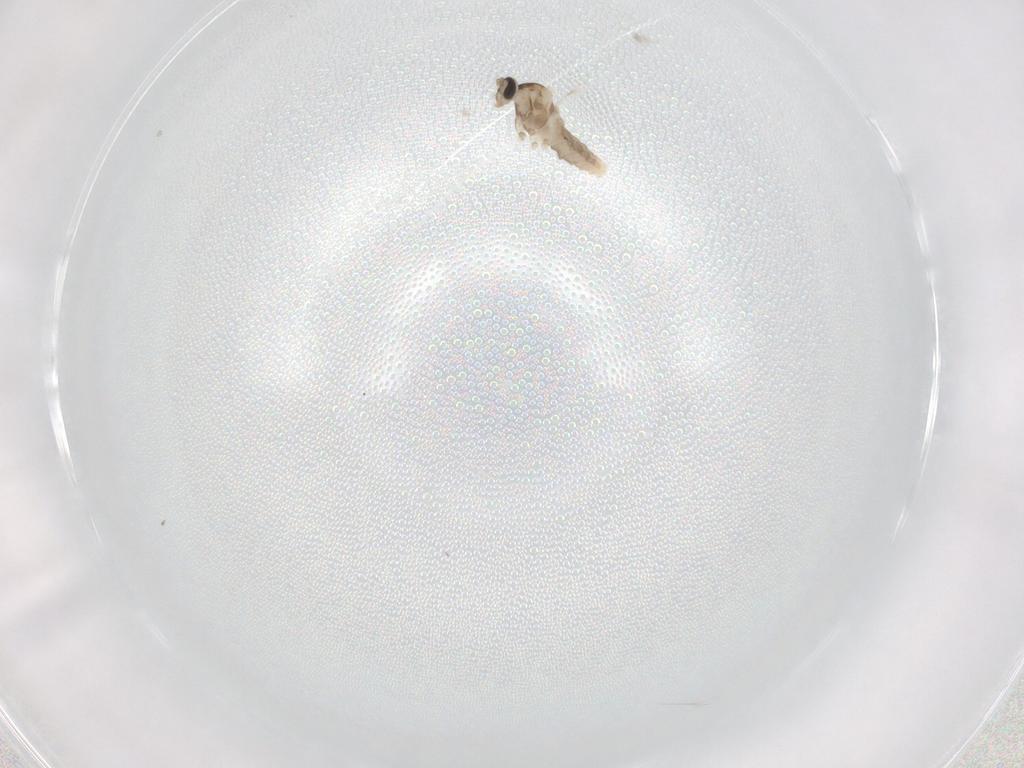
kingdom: Animalia
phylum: Arthropoda
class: Insecta
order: Diptera
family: Cecidomyiidae
